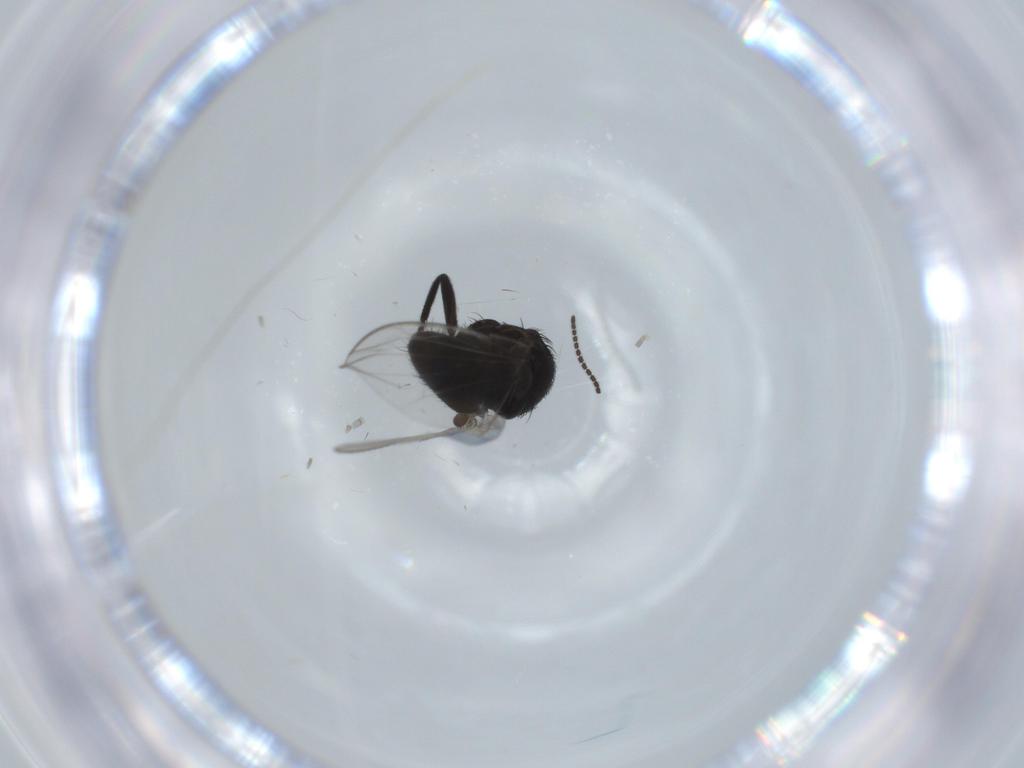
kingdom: Animalia
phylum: Arthropoda
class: Insecta
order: Diptera
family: Milichiidae
